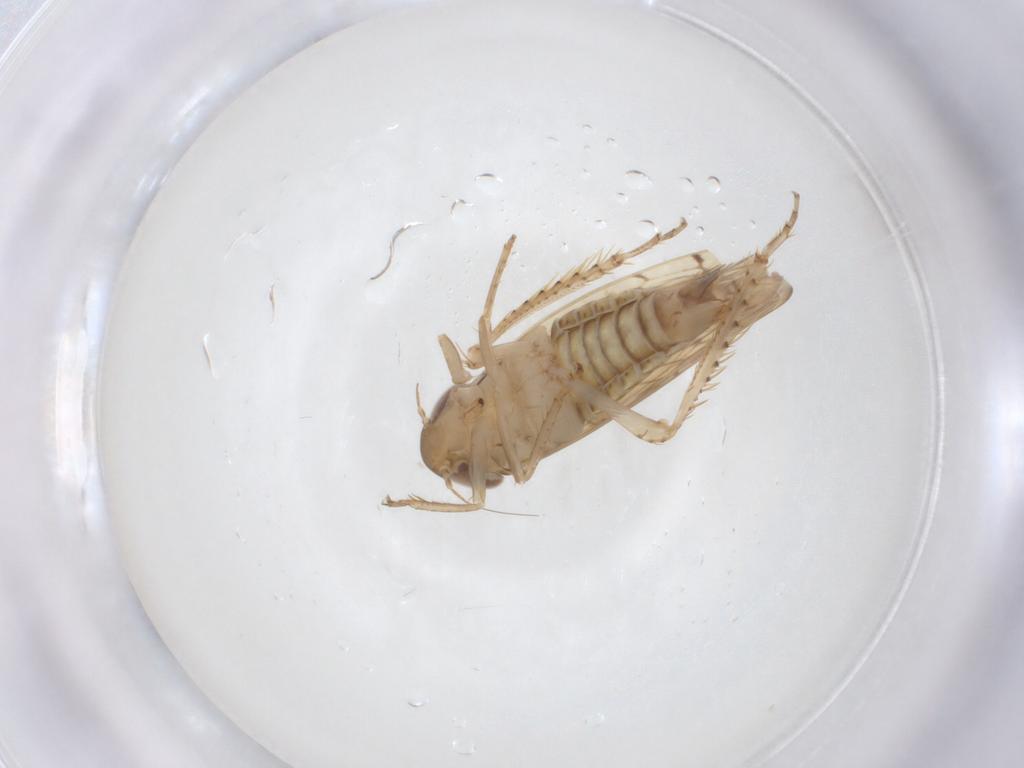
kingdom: Animalia
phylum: Arthropoda
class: Insecta
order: Hemiptera
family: Cicadellidae
